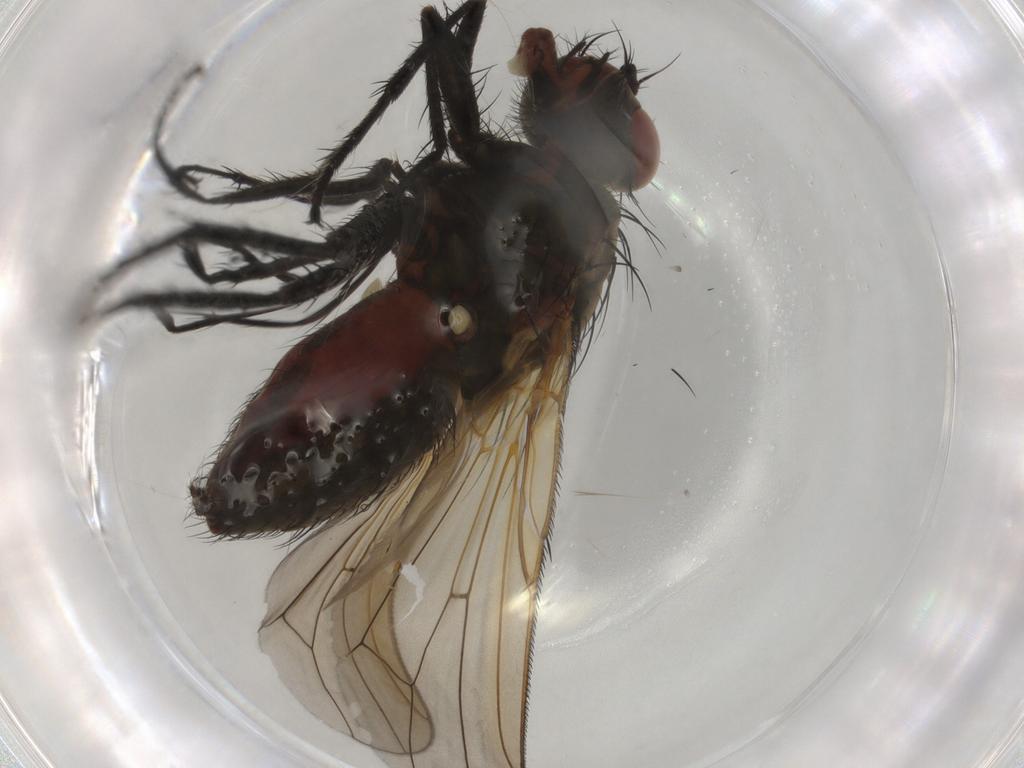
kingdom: Animalia
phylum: Arthropoda
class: Insecta
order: Diptera
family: Anthomyiidae
